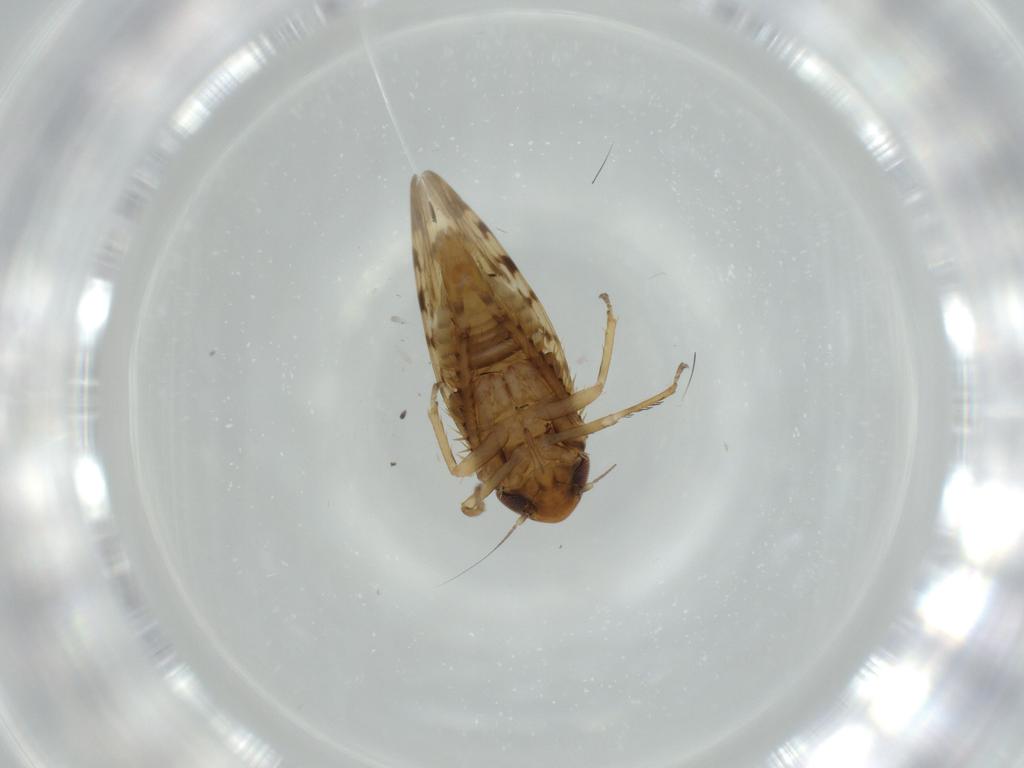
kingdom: Animalia
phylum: Arthropoda
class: Insecta
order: Hemiptera
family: Cicadellidae
